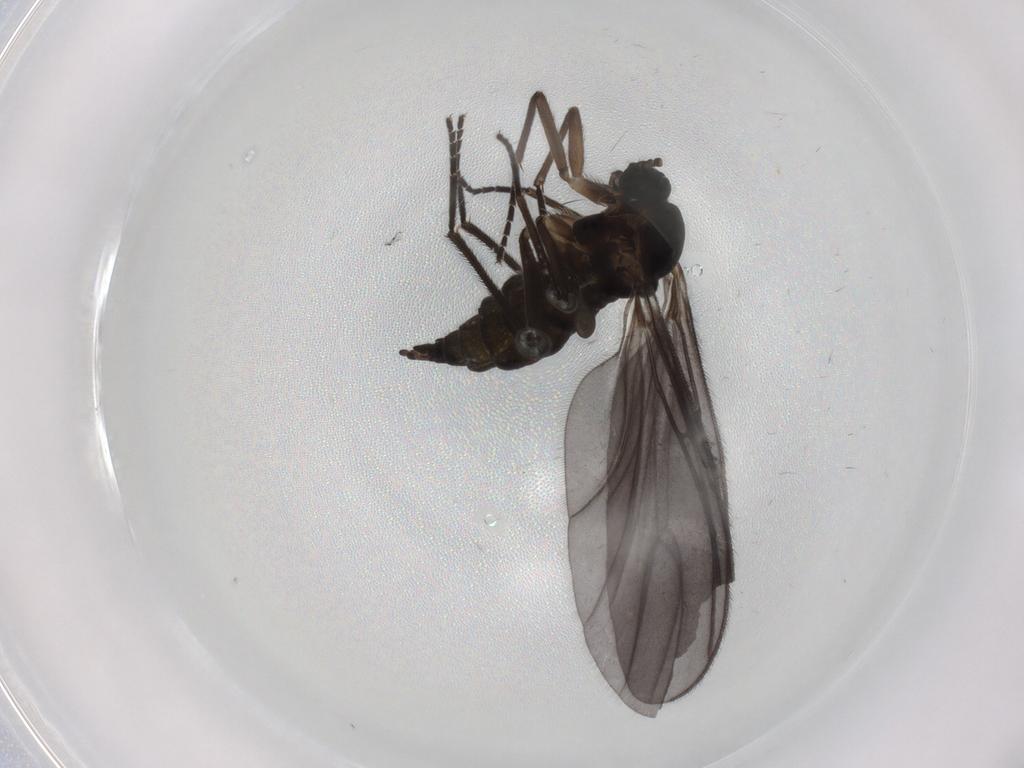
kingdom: Animalia
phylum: Arthropoda
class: Insecta
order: Diptera
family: Sciaridae
